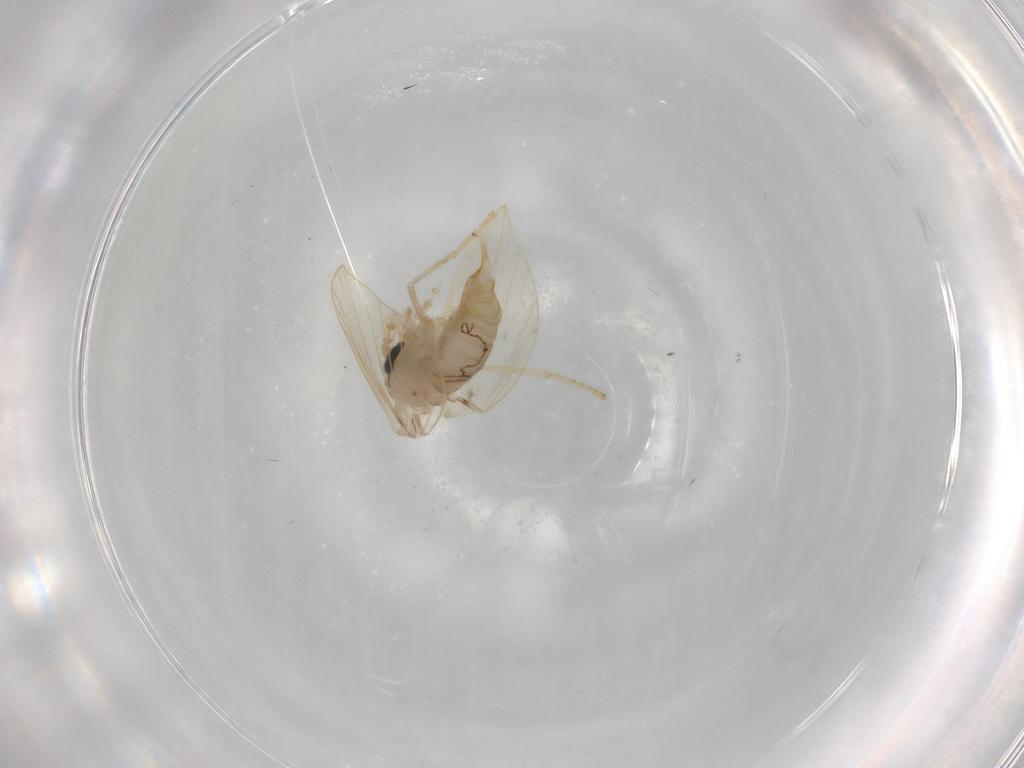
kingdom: Animalia
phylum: Arthropoda
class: Insecta
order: Diptera
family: Psychodidae
